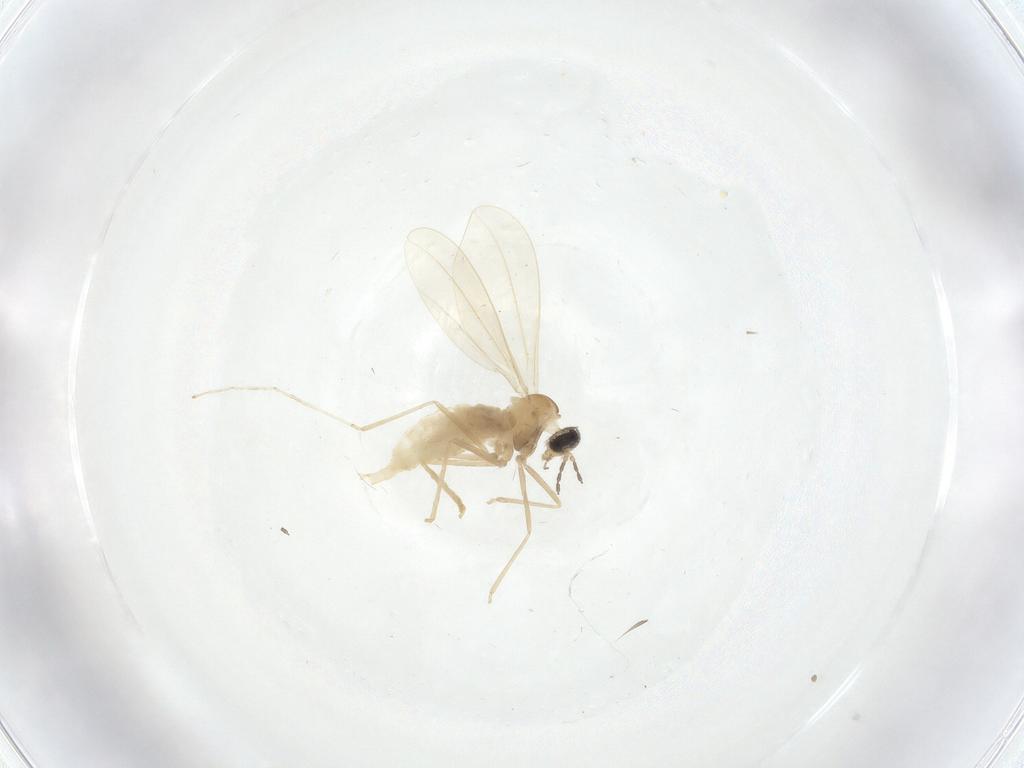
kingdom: Animalia
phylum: Arthropoda
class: Insecta
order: Diptera
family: Cecidomyiidae
